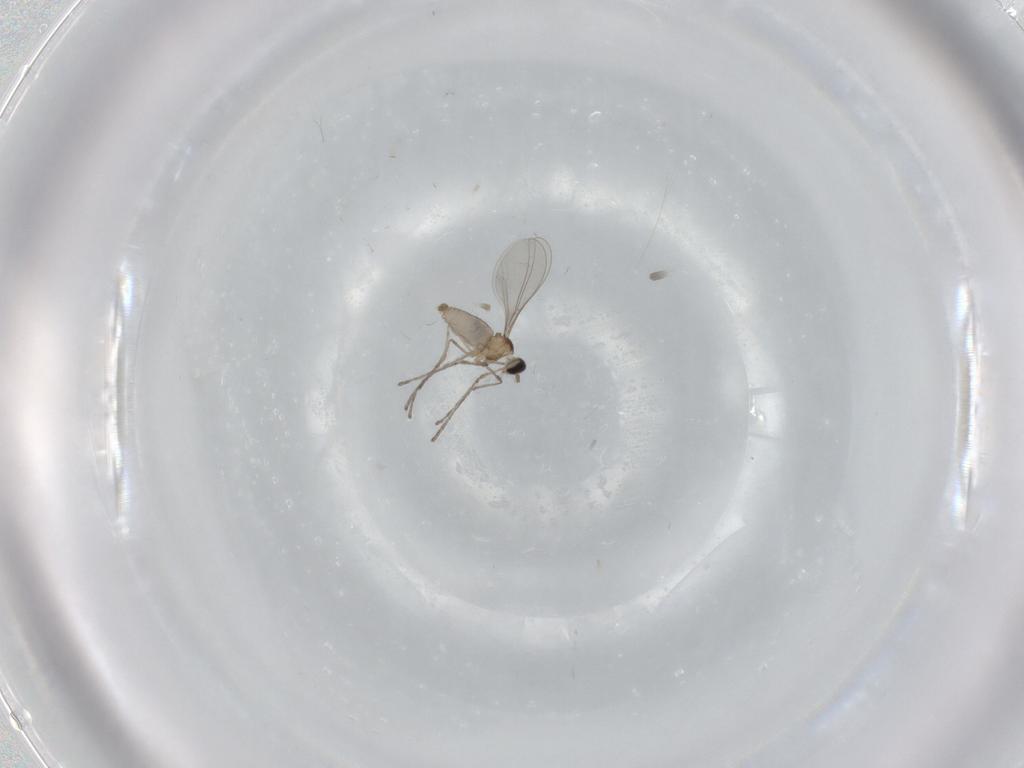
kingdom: Animalia
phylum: Arthropoda
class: Insecta
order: Diptera
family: Cecidomyiidae
